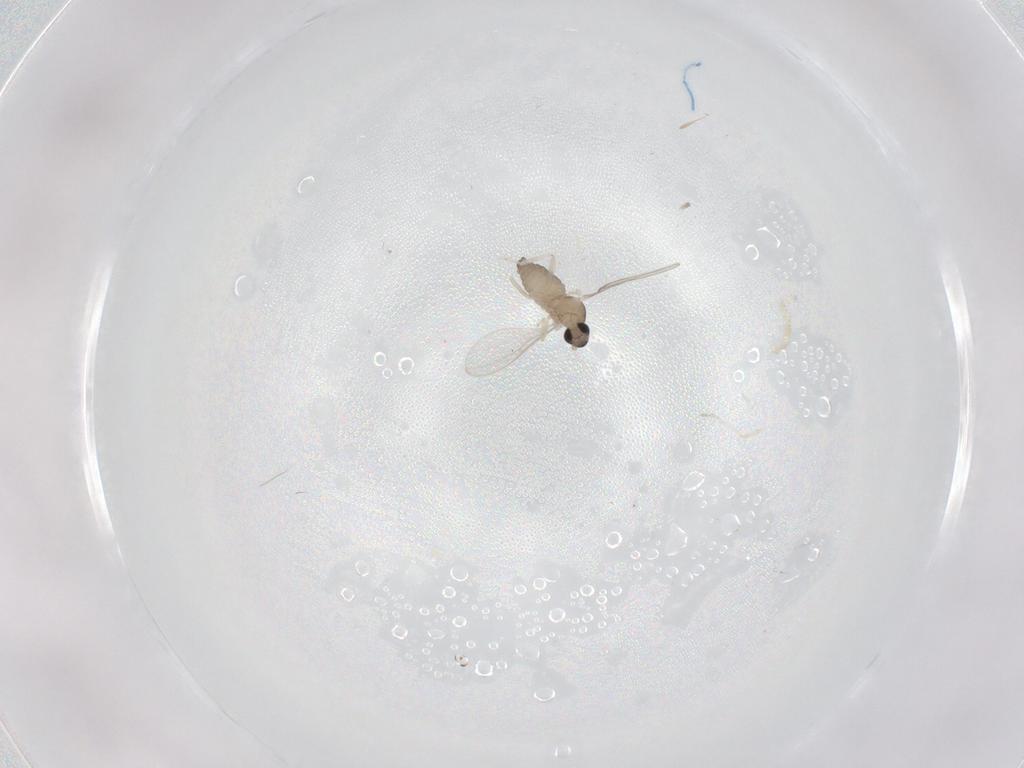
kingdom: Animalia
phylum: Arthropoda
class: Insecta
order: Diptera
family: Cecidomyiidae
